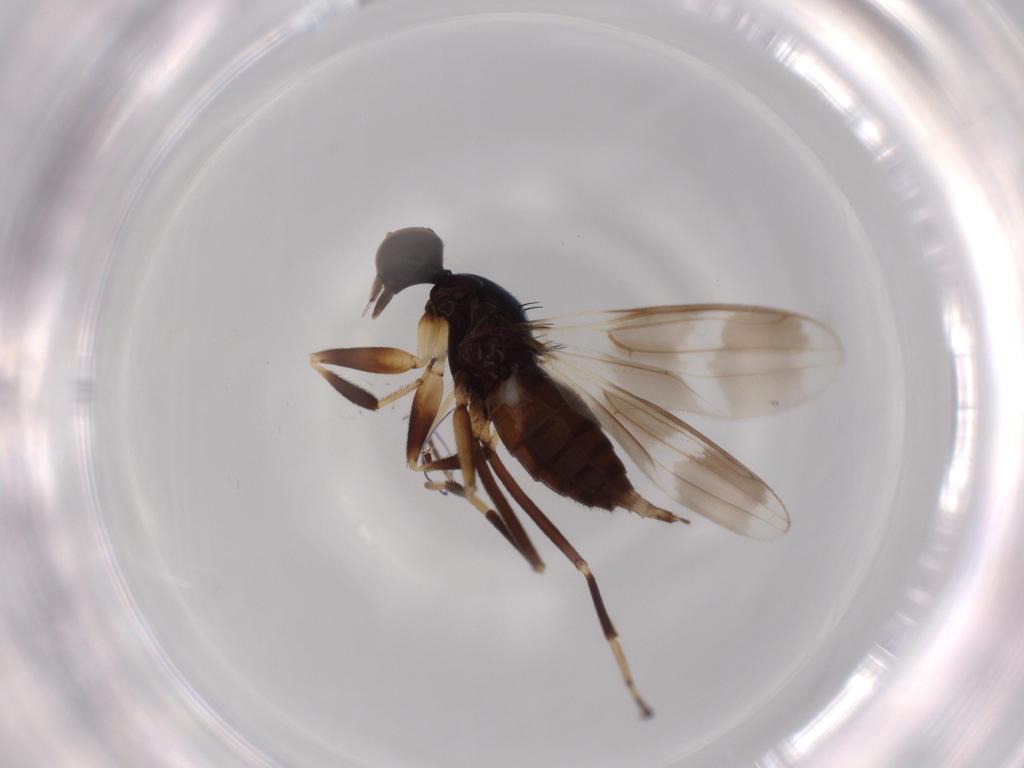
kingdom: Animalia
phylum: Arthropoda
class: Insecta
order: Diptera
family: Hybotidae
